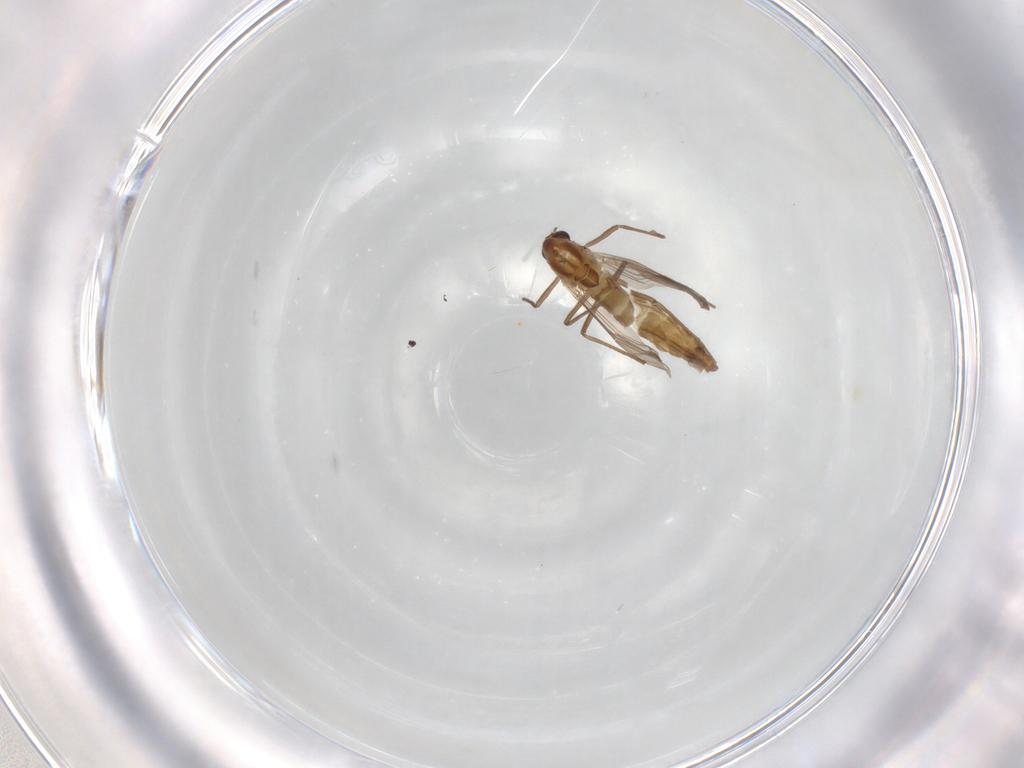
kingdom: Animalia
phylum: Arthropoda
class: Insecta
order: Diptera
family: Chironomidae
